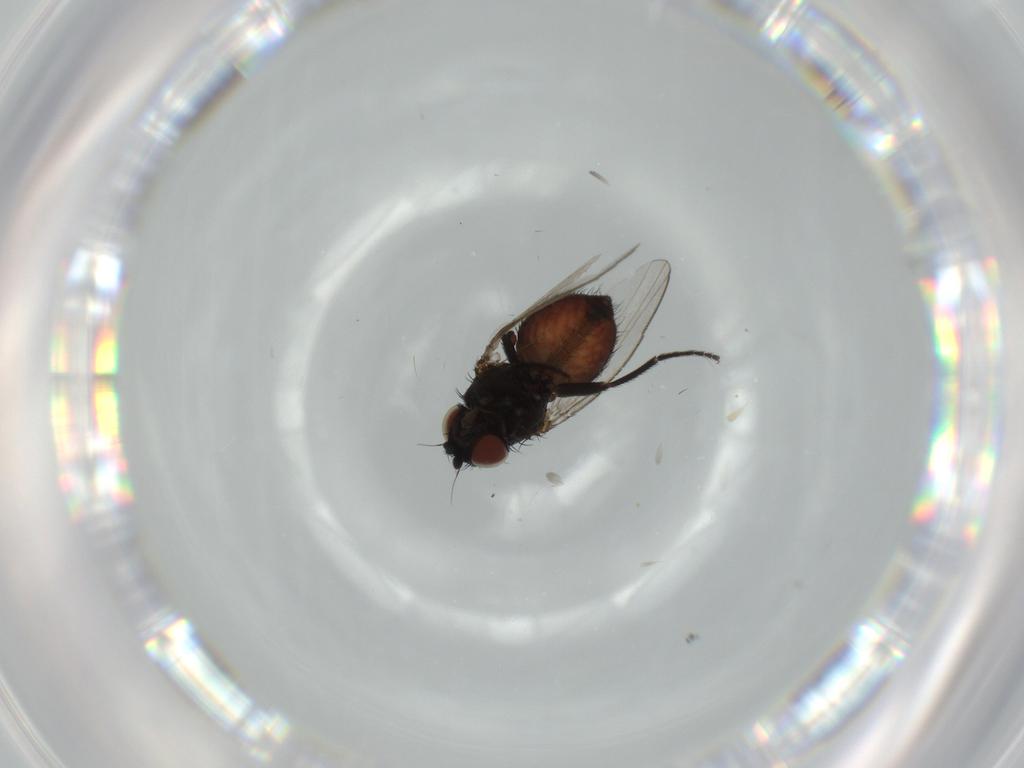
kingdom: Animalia
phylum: Arthropoda
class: Insecta
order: Diptera
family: Milichiidae
